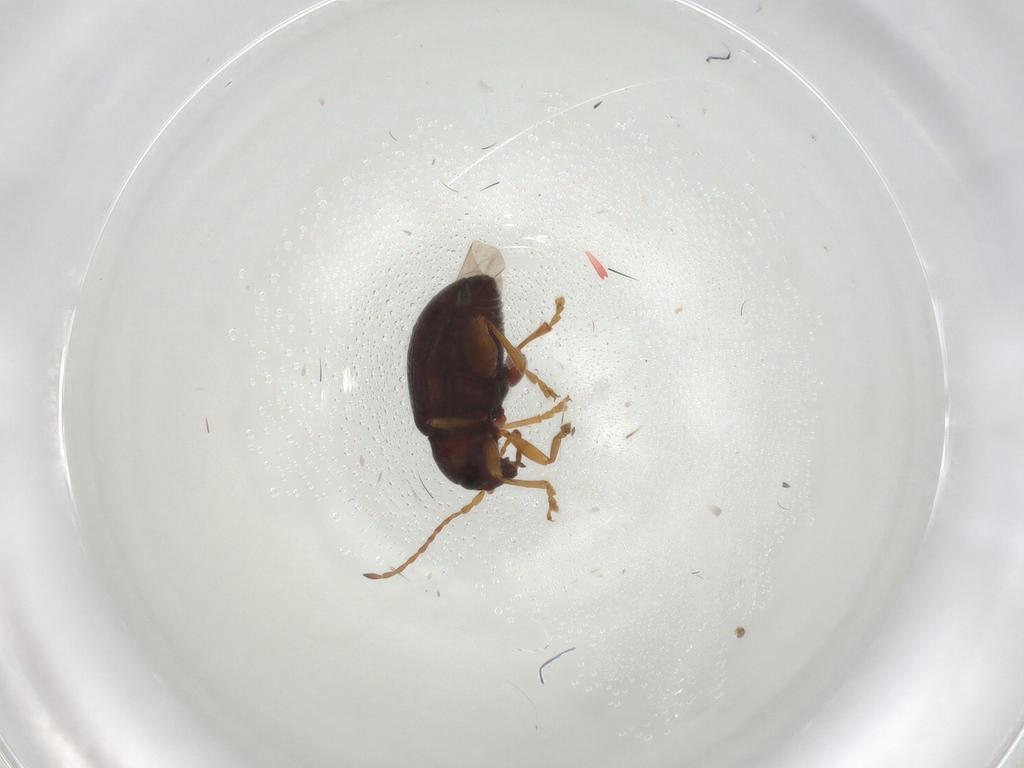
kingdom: Animalia
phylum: Arthropoda
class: Insecta
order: Coleoptera
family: Chrysomelidae
